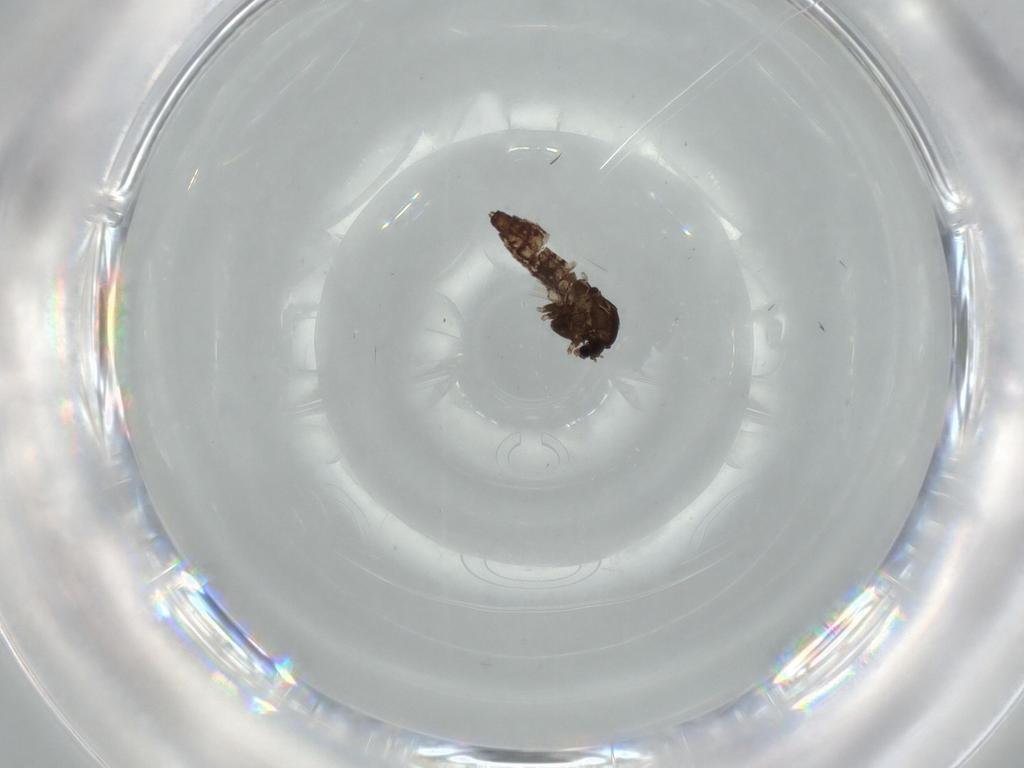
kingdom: Animalia
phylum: Arthropoda
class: Insecta
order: Diptera
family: Chironomidae
